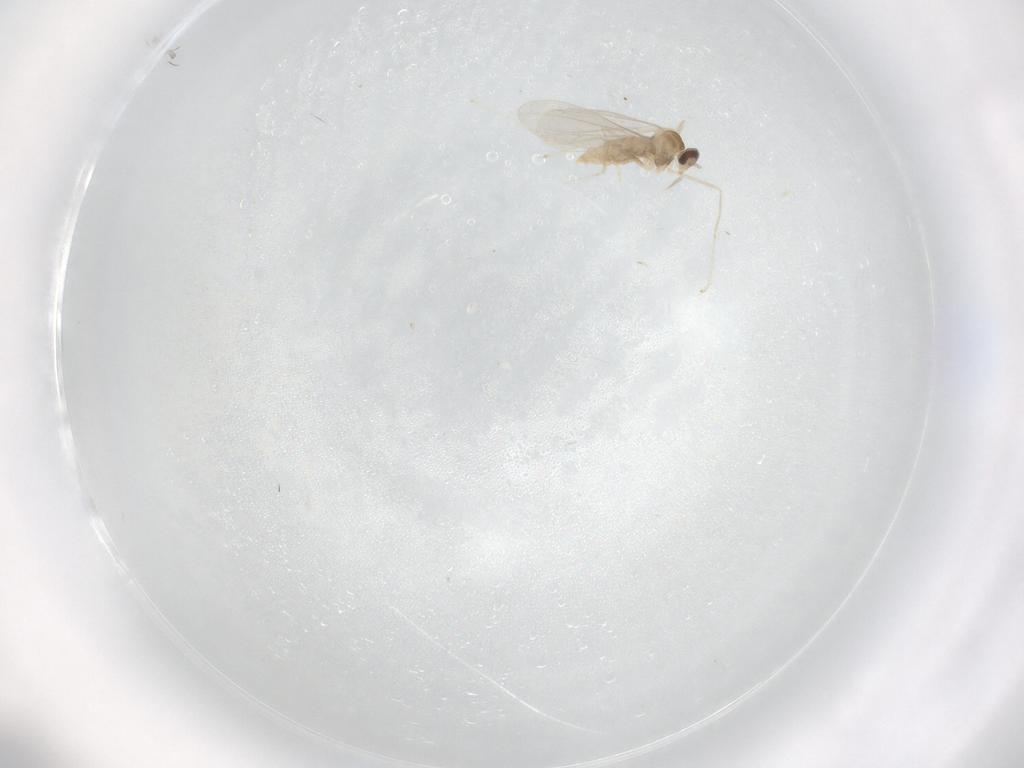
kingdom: Animalia
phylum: Arthropoda
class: Insecta
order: Diptera
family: Cecidomyiidae
